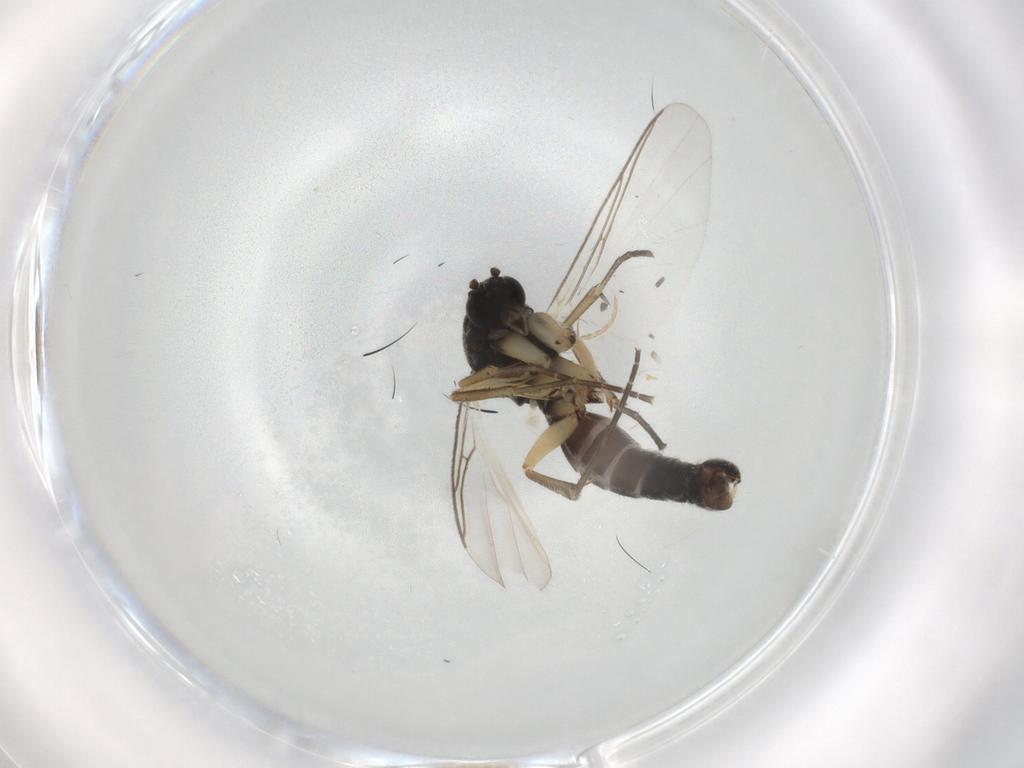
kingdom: Animalia
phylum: Arthropoda
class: Insecta
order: Diptera
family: Mycetophilidae
